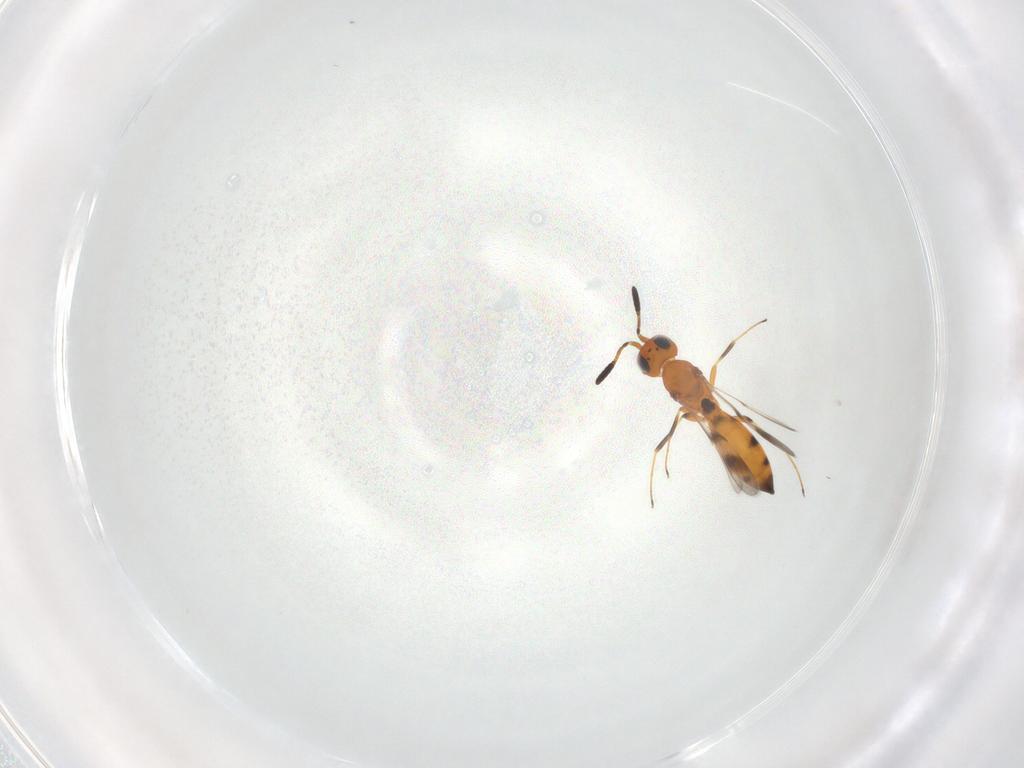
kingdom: Animalia
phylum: Arthropoda
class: Insecta
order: Hymenoptera
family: Scelionidae
